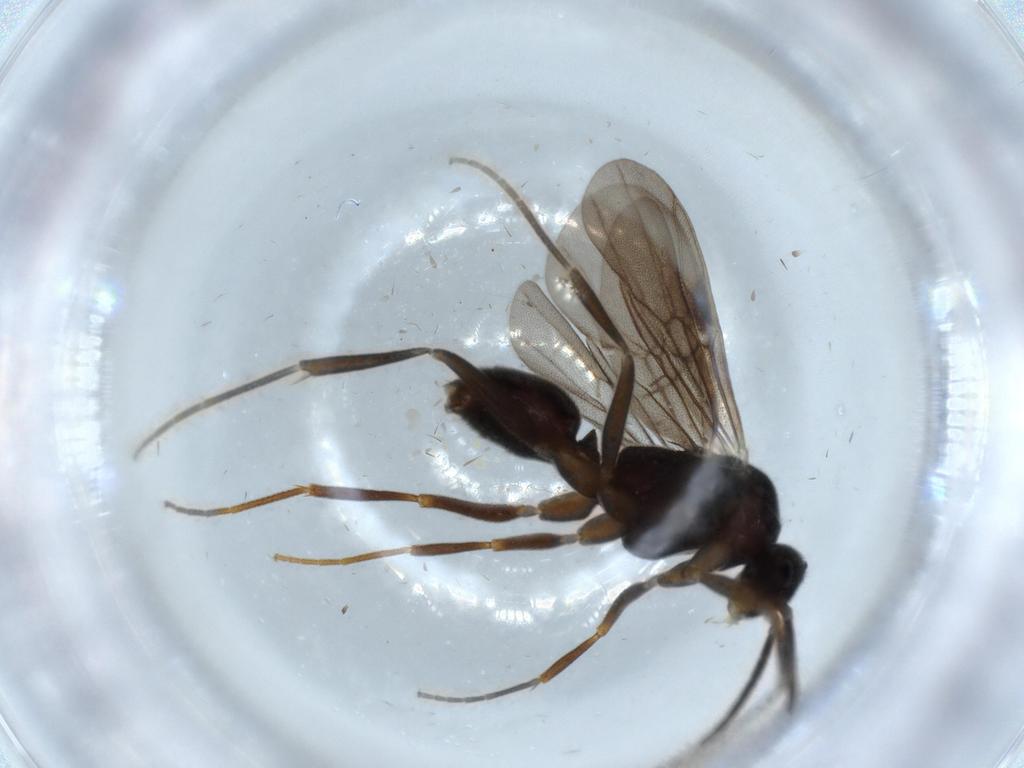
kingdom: Animalia
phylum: Arthropoda
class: Insecta
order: Hymenoptera
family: Formicidae
